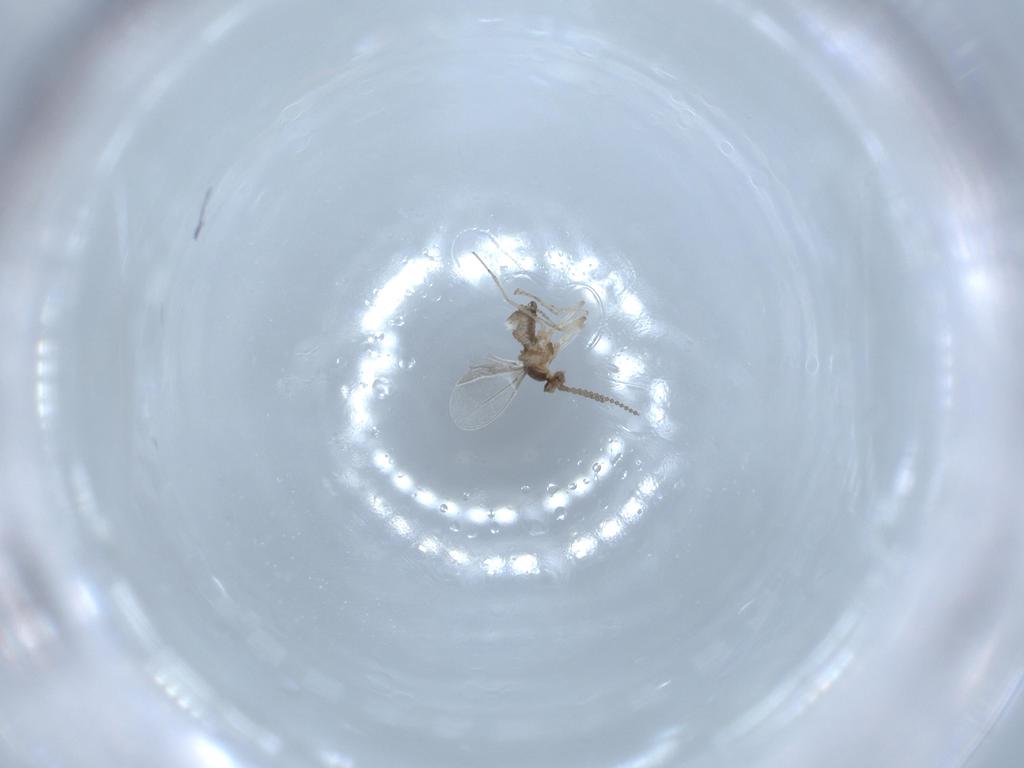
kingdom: Animalia
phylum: Arthropoda
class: Insecta
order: Diptera
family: Cecidomyiidae
